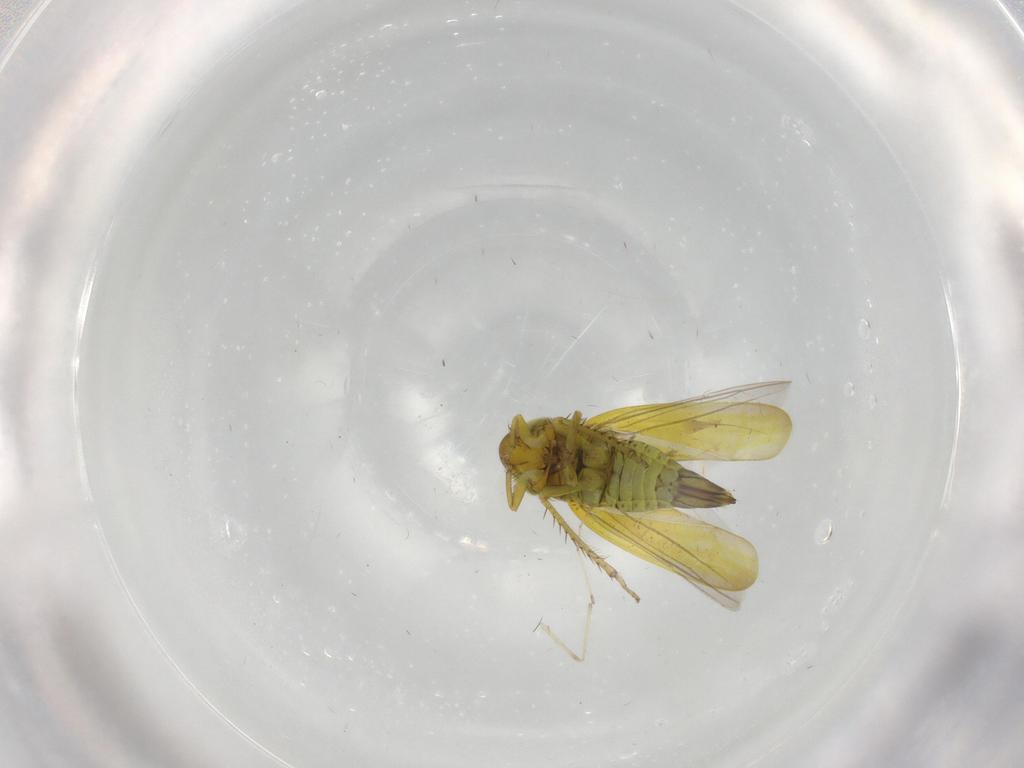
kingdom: Animalia
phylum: Arthropoda
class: Insecta
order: Hemiptera
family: Cicadellidae
